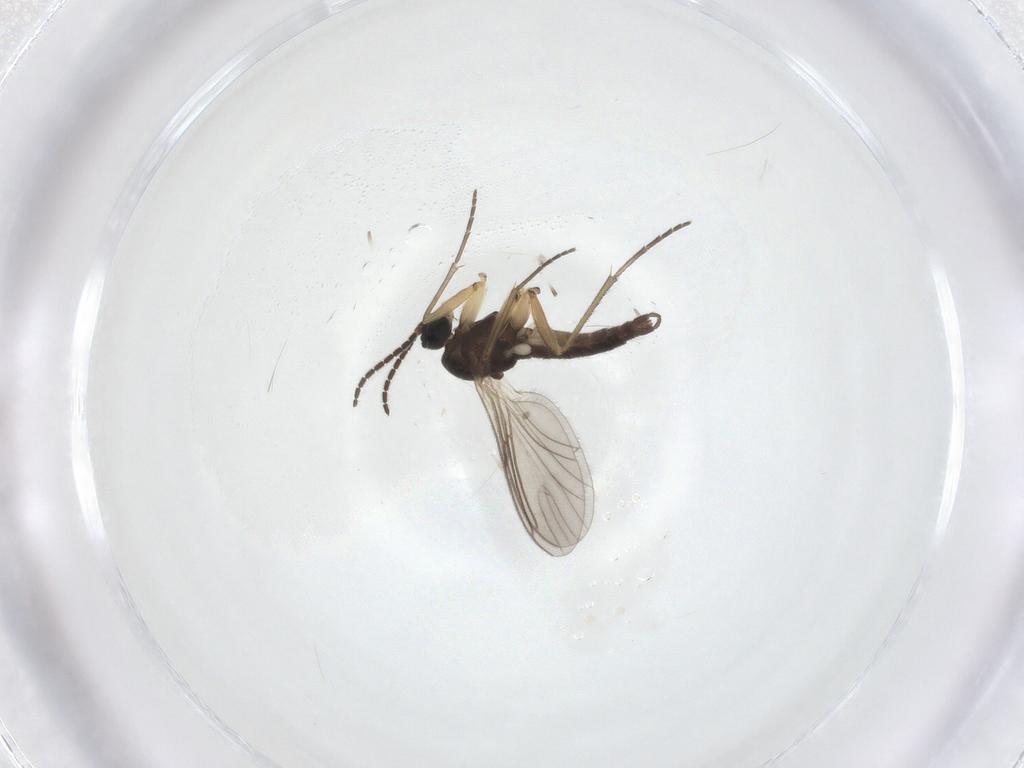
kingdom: Animalia
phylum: Arthropoda
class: Insecta
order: Diptera
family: Sciaridae
